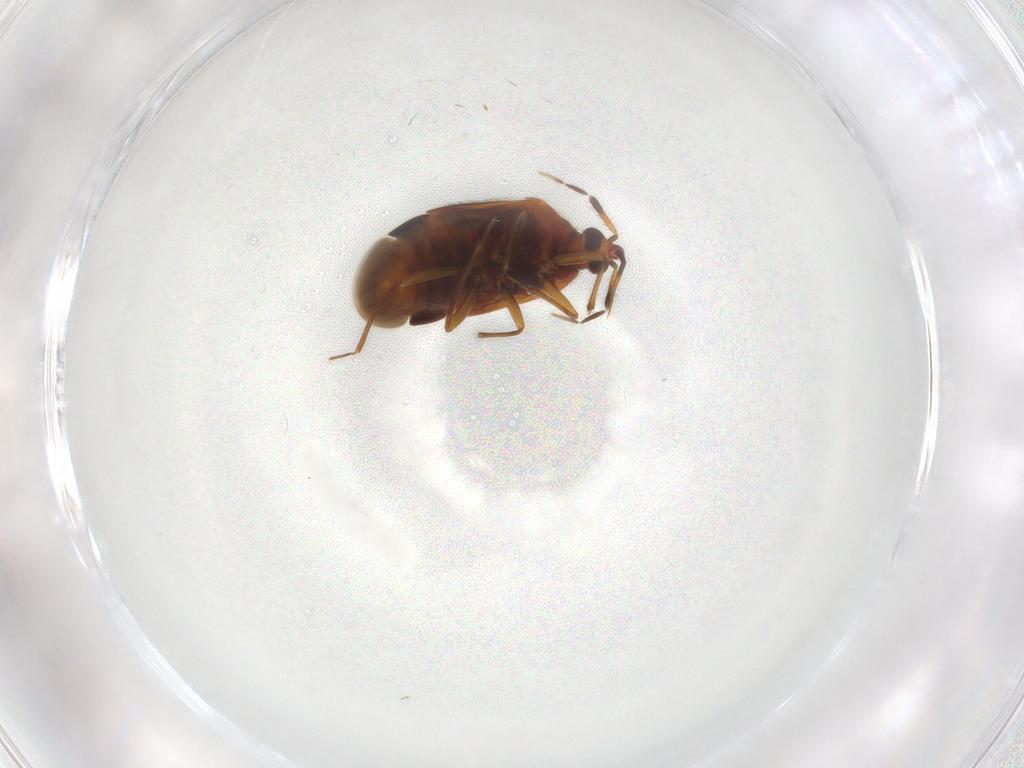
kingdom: Animalia
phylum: Arthropoda
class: Insecta
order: Hemiptera
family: Anthocoridae
